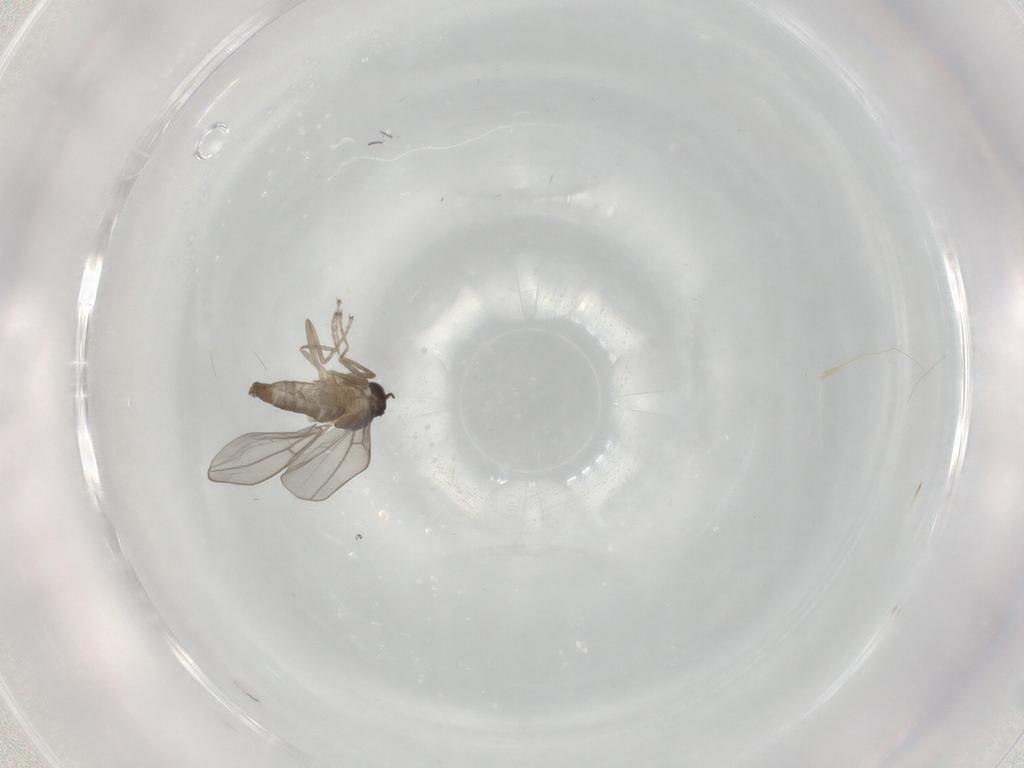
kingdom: Animalia
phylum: Arthropoda
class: Insecta
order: Diptera
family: Cecidomyiidae
